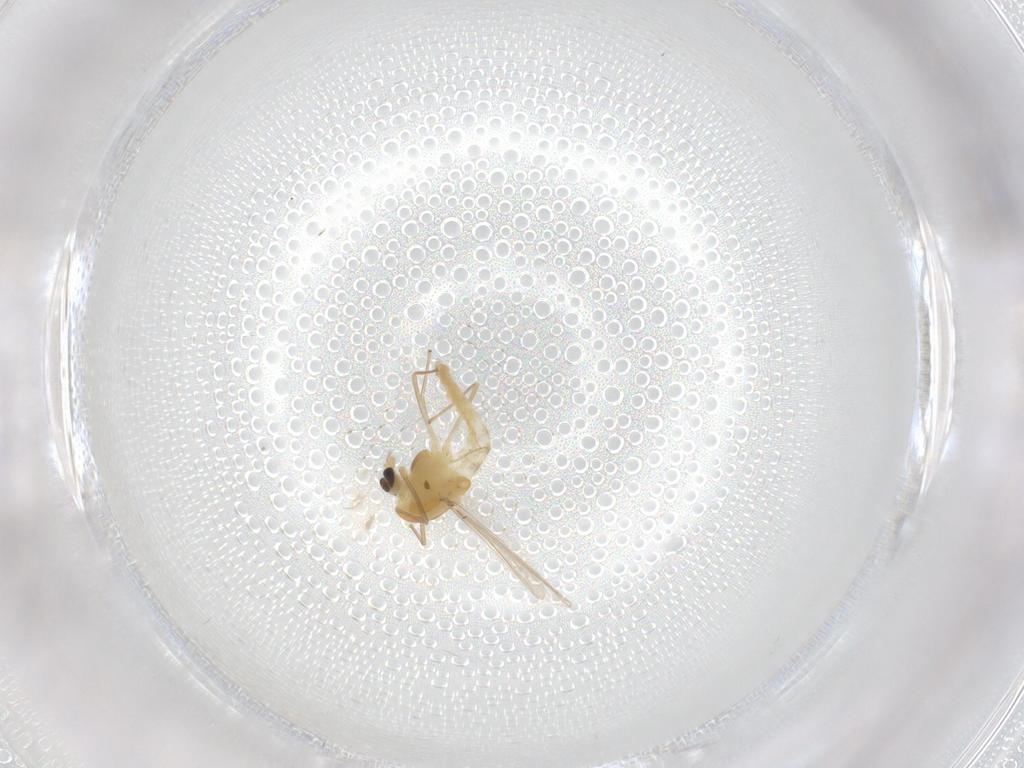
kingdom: Animalia
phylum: Arthropoda
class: Insecta
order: Diptera
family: Chironomidae
